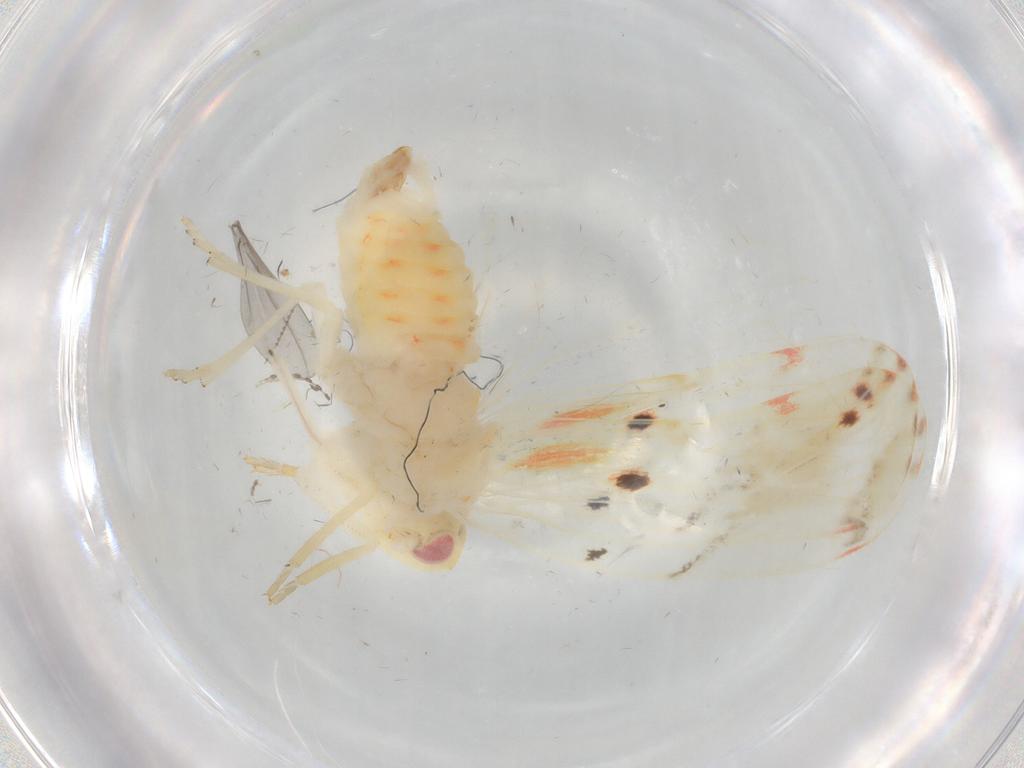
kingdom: Animalia
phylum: Arthropoda
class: Insecta
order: Hemiptera
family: Derbidae
